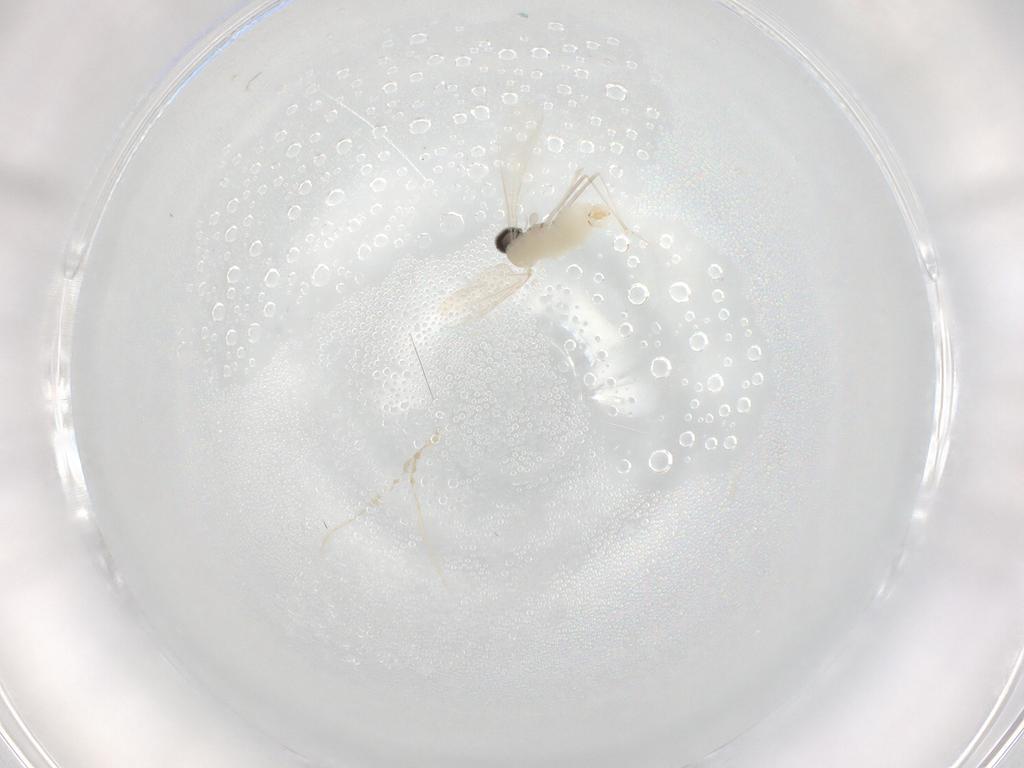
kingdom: Animalia
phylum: Arthropoda
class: Insecta
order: Diptera
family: Cecidomyiidae
